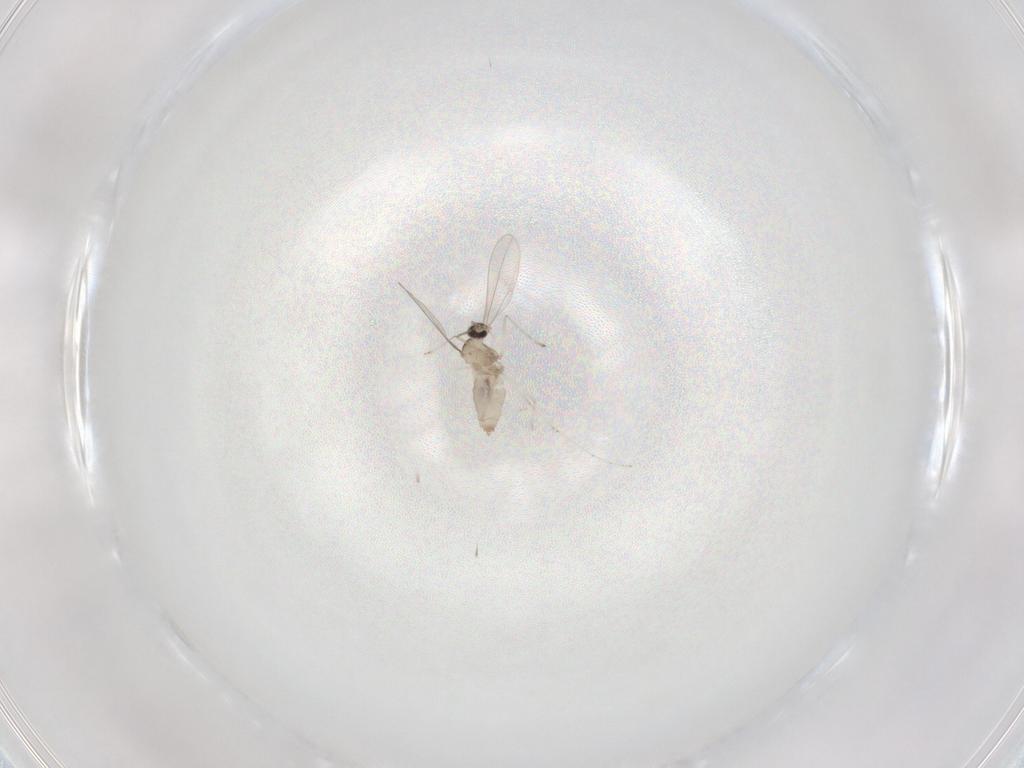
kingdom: Animalia
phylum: Arthropoda
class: Insecta
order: Diptera
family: Cecidomyiidae
